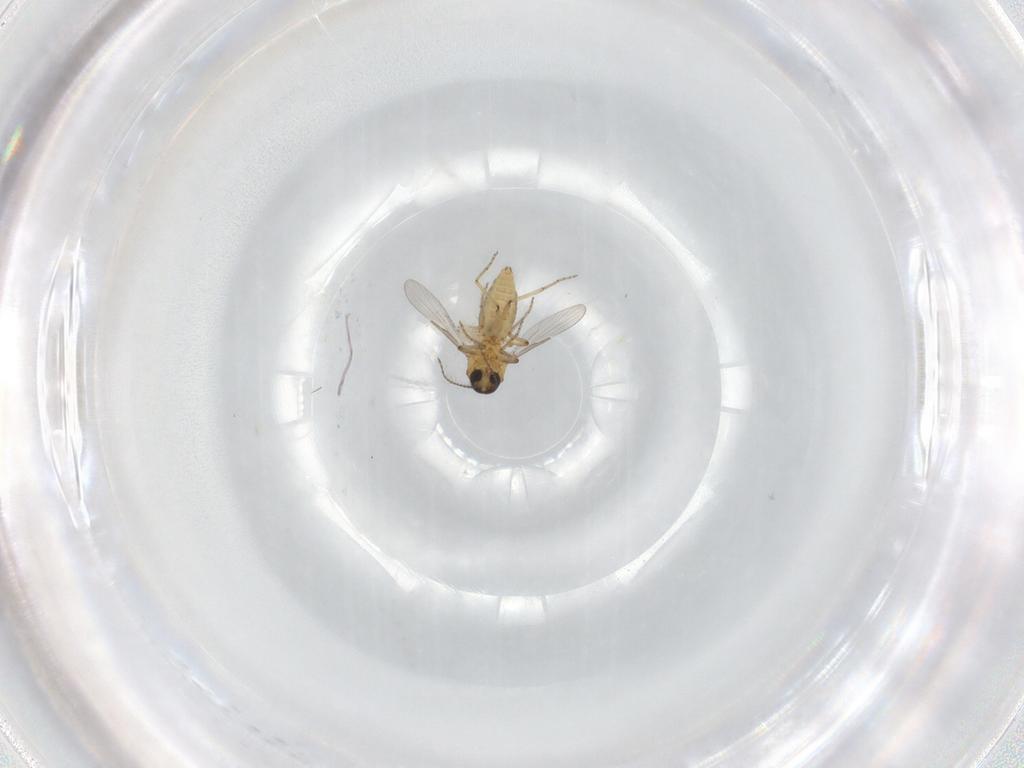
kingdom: Animalia
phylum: Arthropoda
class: Insecta
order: Diptera
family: Ceratopogonidae
